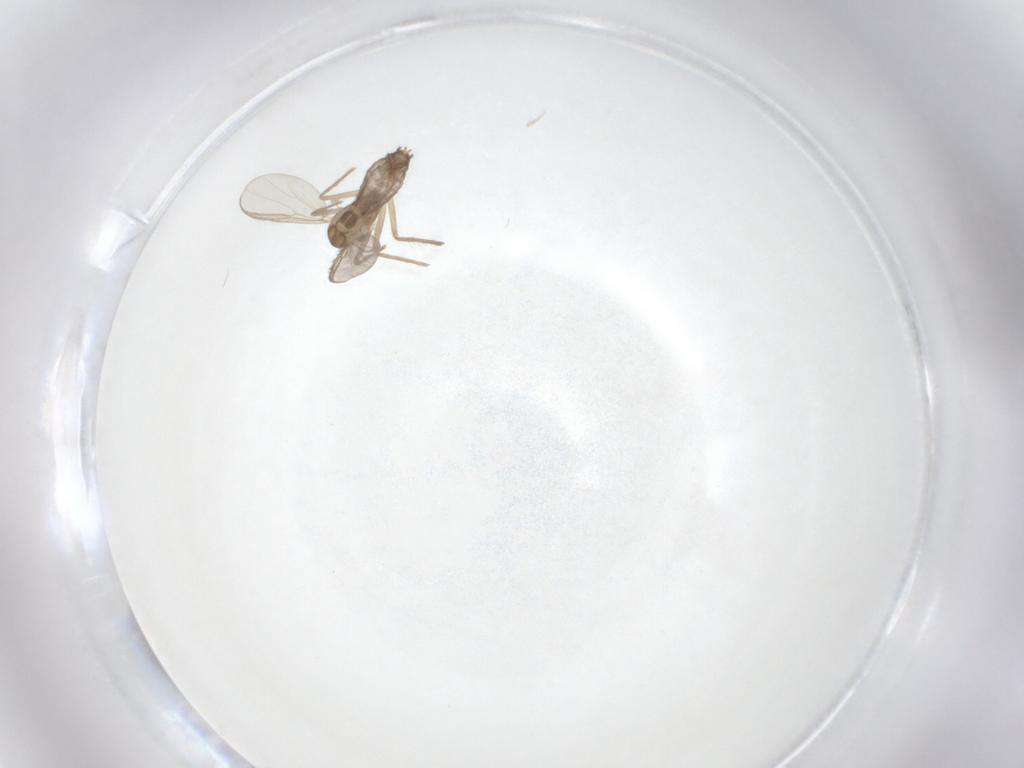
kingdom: Animalia
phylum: Arthropoda
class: Insecta
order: Diptera
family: Chironomidae
